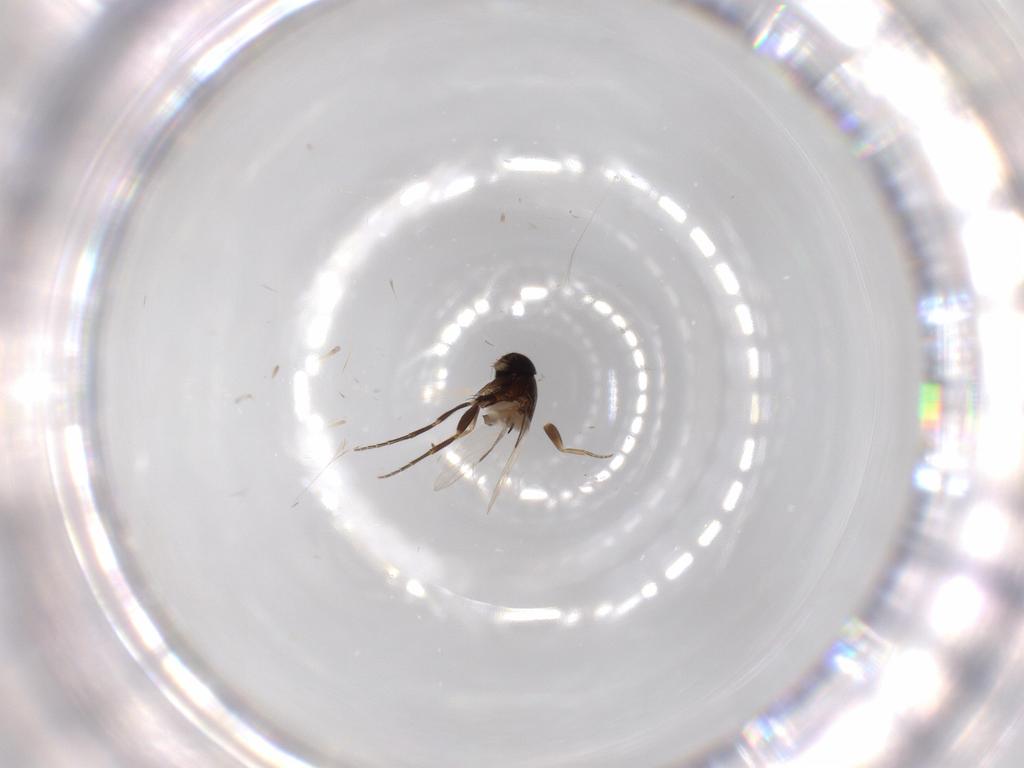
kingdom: Animalia
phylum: Arthropoda
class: Insecta
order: Diptera
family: Phoridae
